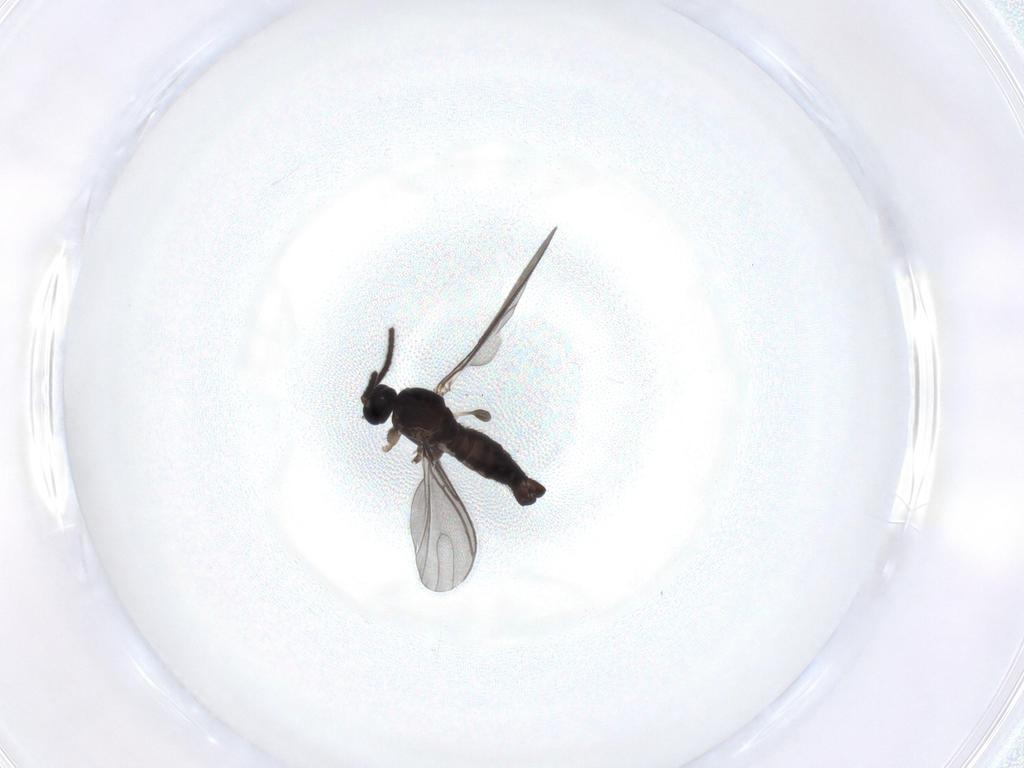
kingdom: Animalia
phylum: Arthropoda
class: Insecta
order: Diptera
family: Sciaridae
